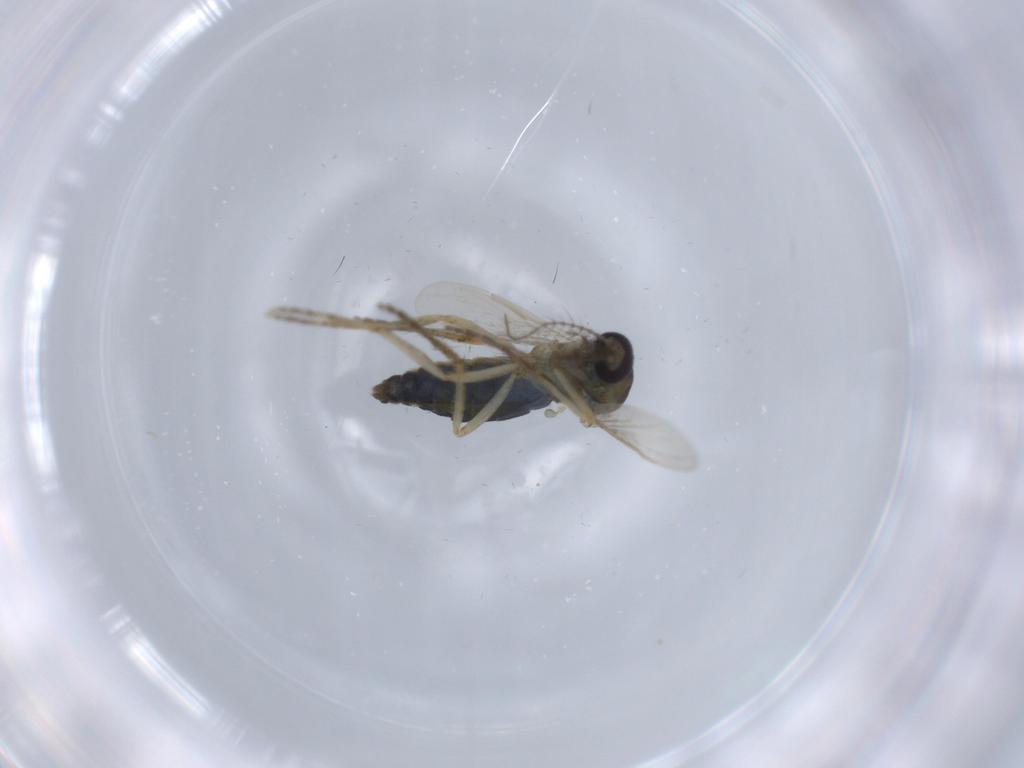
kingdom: Animalia
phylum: Arthropoda
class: Insecta
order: Diptera
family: Ceratopogonidae
